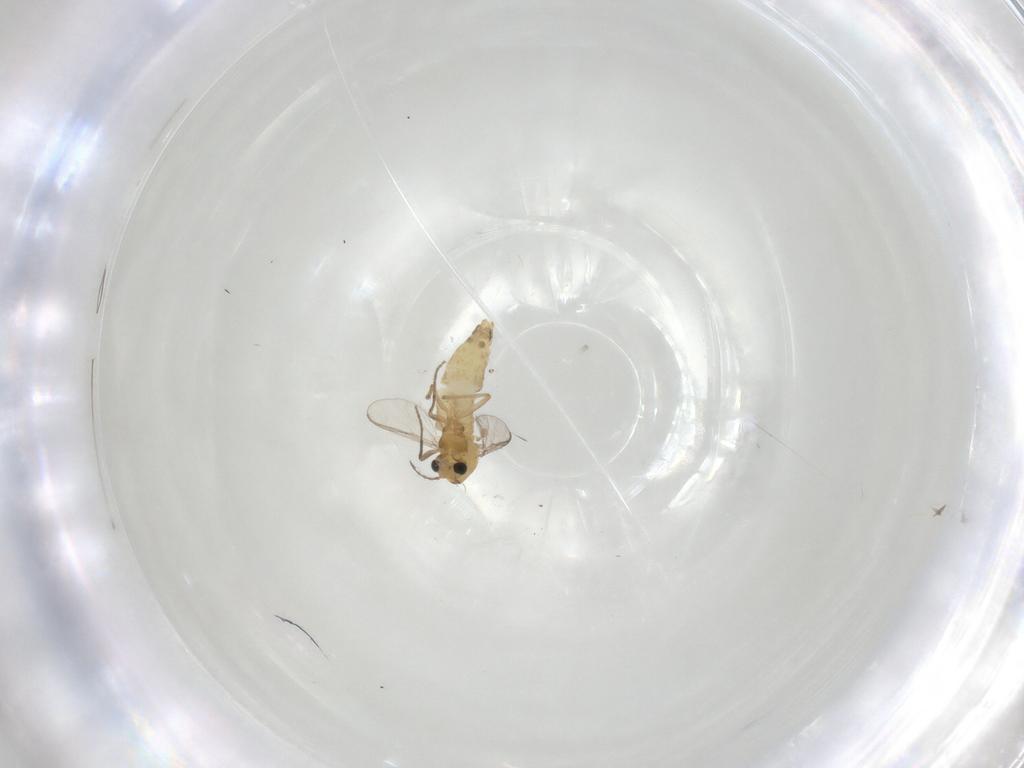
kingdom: Animalia
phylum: Arthropoda
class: Insecta
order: Diptera
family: Chironomidae
